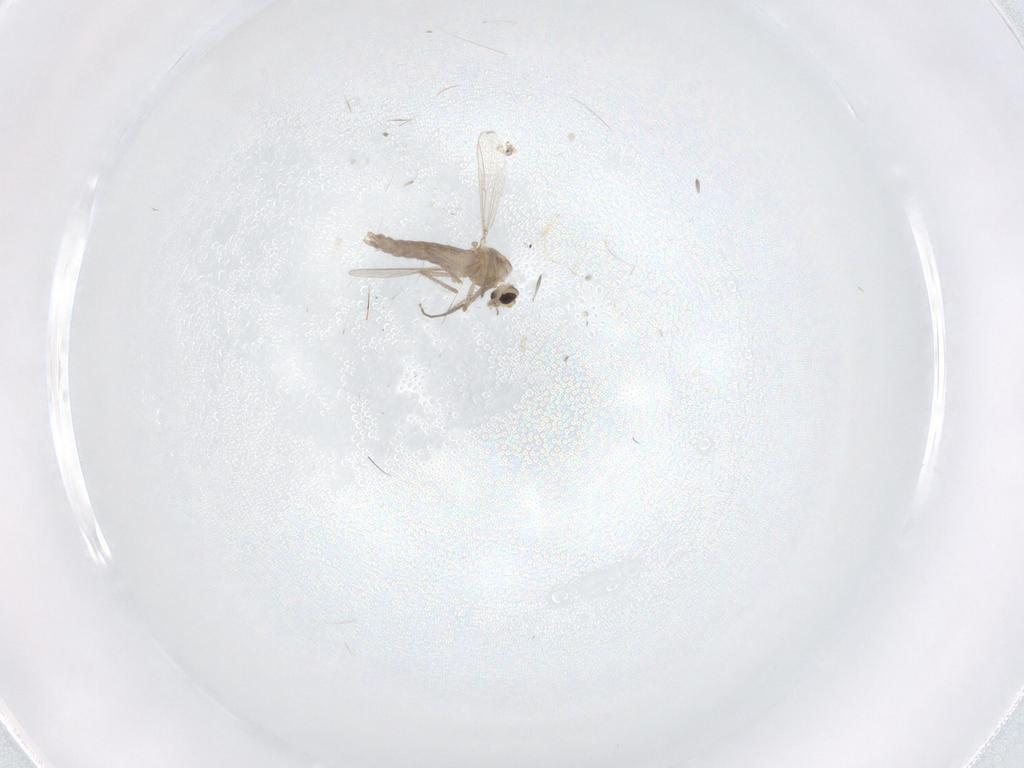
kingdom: Animalia
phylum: Arthropoda
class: Insecta
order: Diptera
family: Chironomidae
